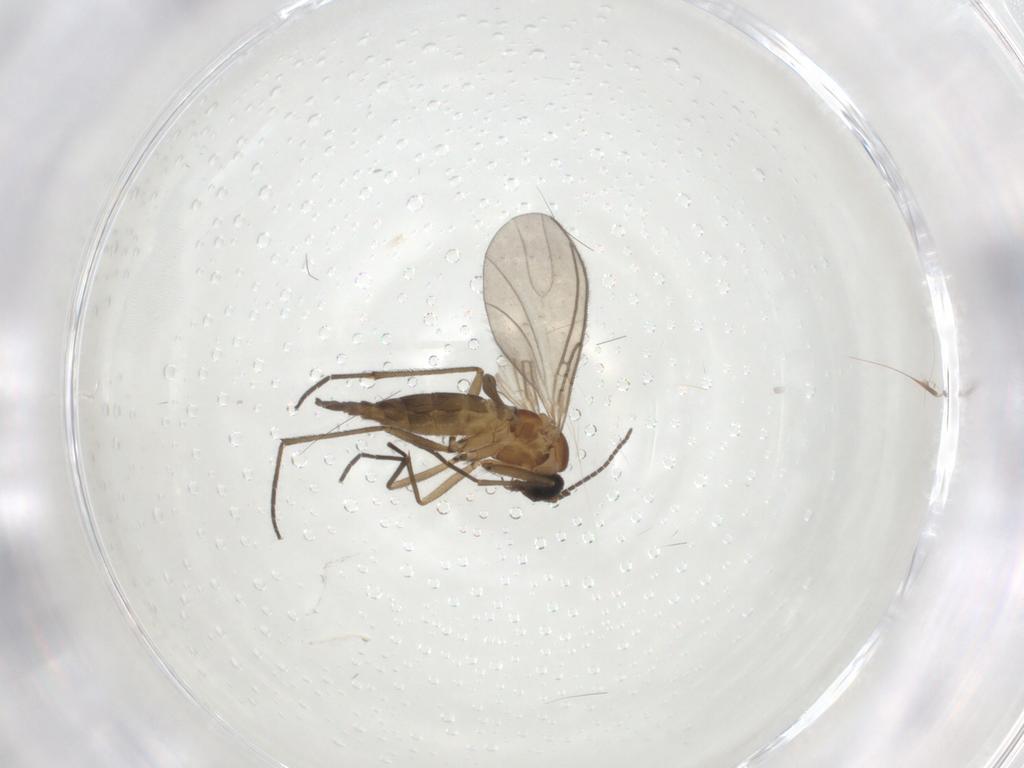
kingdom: Animalia
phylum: Arthropoda
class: Insecta
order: Diptera
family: Sciaridae
